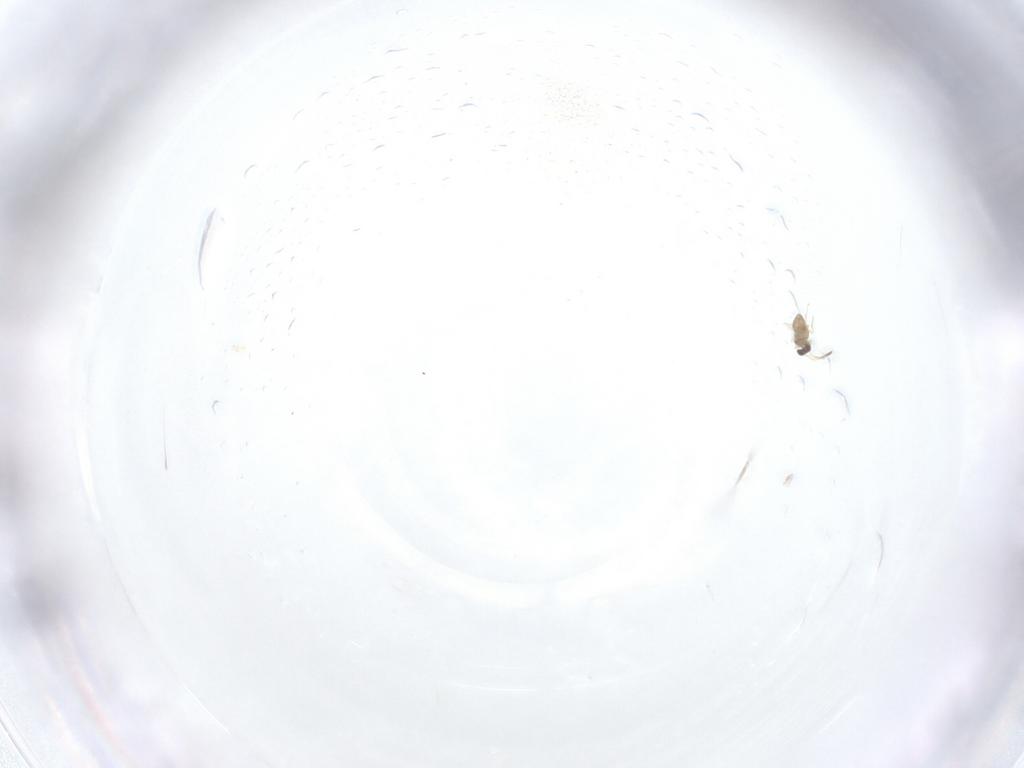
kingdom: Animalia
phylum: Arthropoda
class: Insecta
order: Hymenoptera
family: Mymaridae
